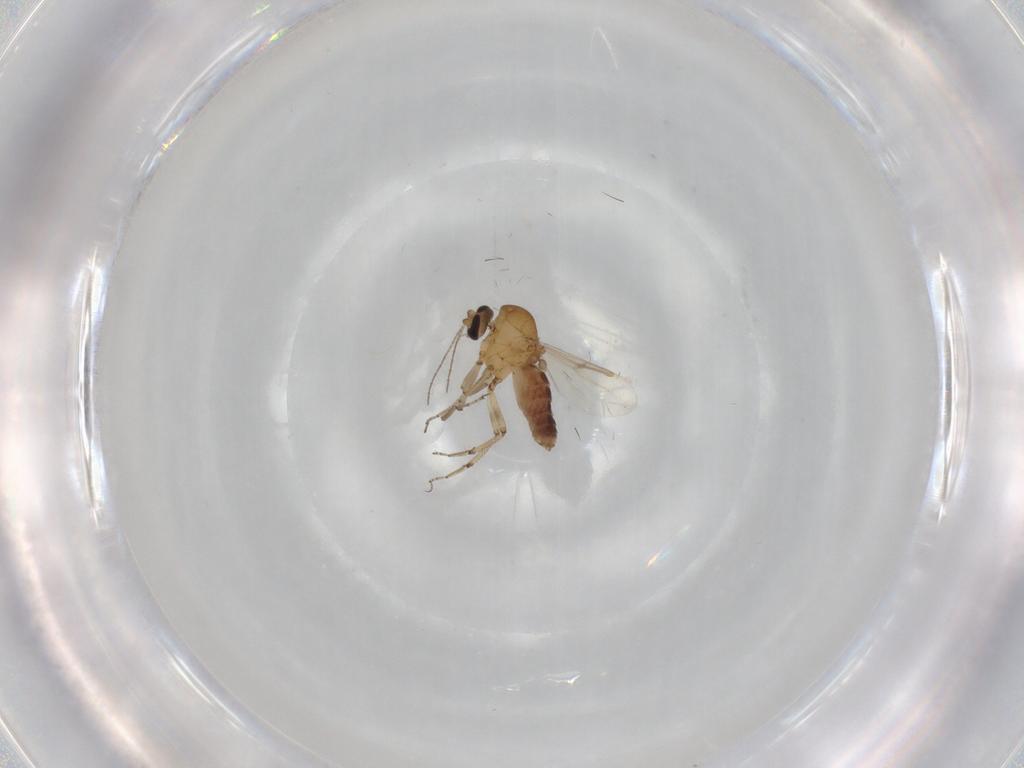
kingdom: Animalia
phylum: Arthropoda
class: Insecta
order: Diptera
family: Ceratopogonidae
